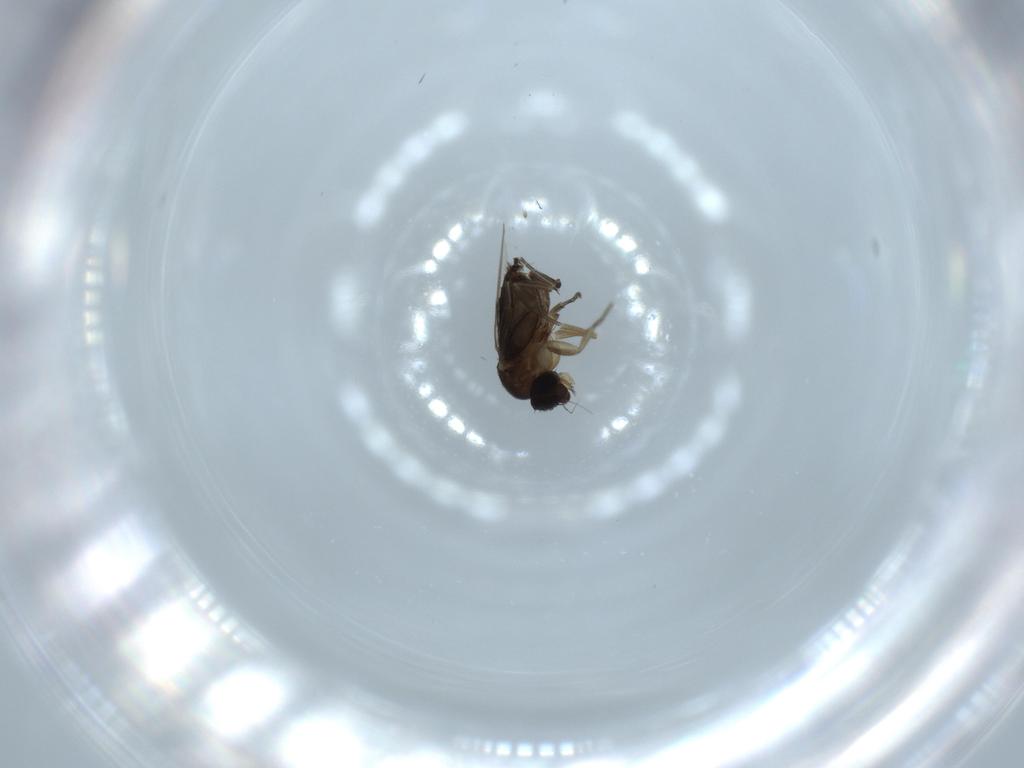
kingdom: Animalia
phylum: Arthropoda
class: Insecta
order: Diptera
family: Phoridae
